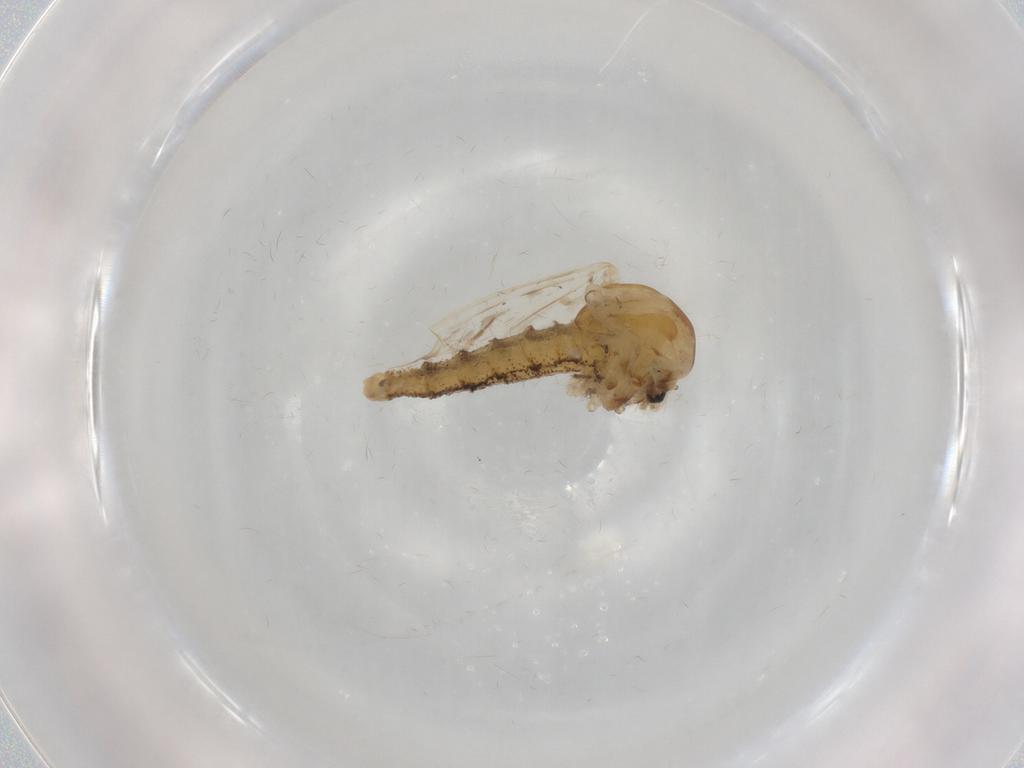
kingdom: Animalia
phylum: Arthropoda
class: Insecta
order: Diptera
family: Chaoboridae
